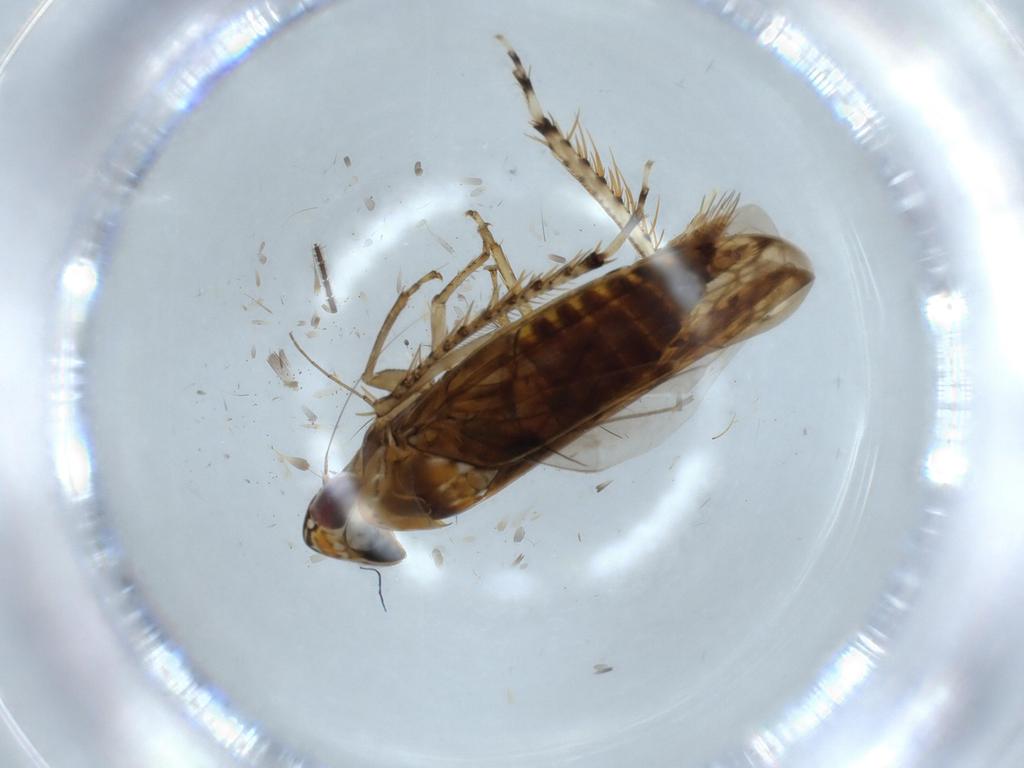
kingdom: Animalia
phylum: Arthropoda
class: Insecta
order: Hemiptera
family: Cicadellidae
